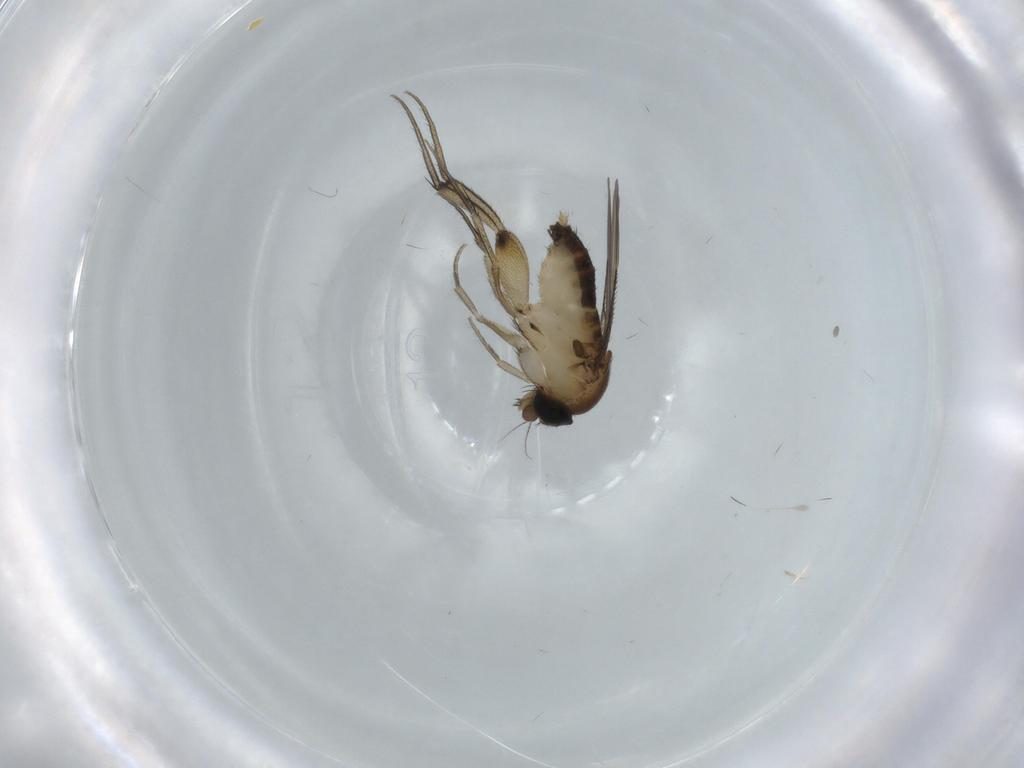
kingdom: Animalia
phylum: Arthropoda
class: Insecta
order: Diptera
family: Phoridae
